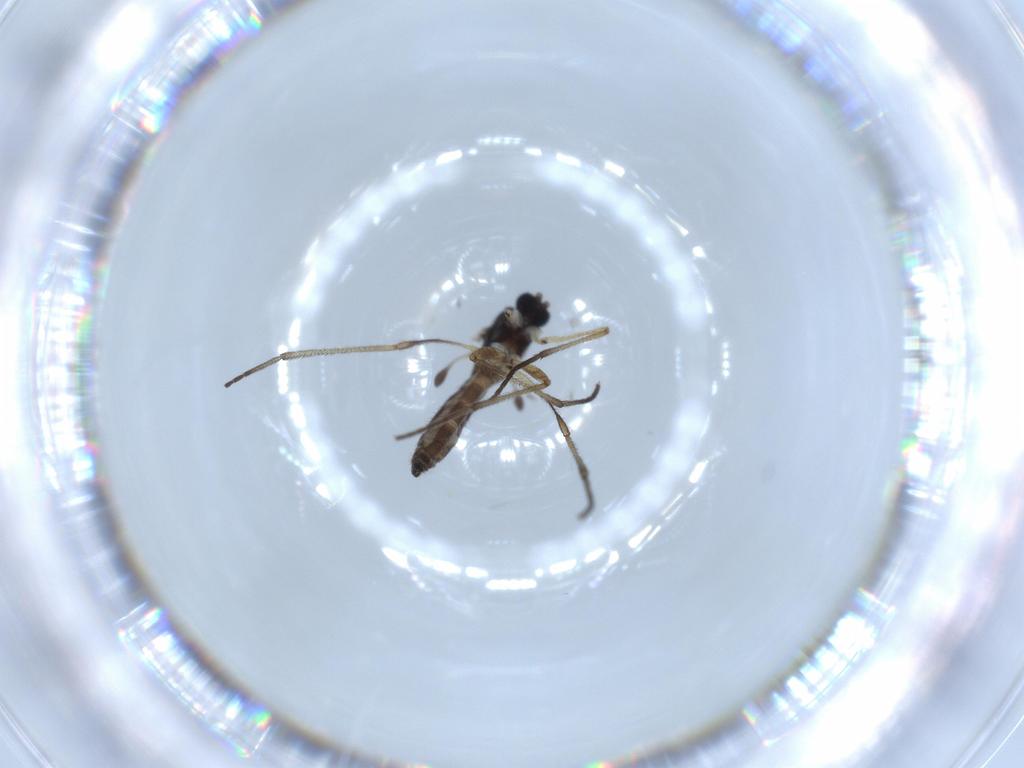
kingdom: Animalia
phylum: Arthropoda
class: Insecta
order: Diptera
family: Sciaridae
